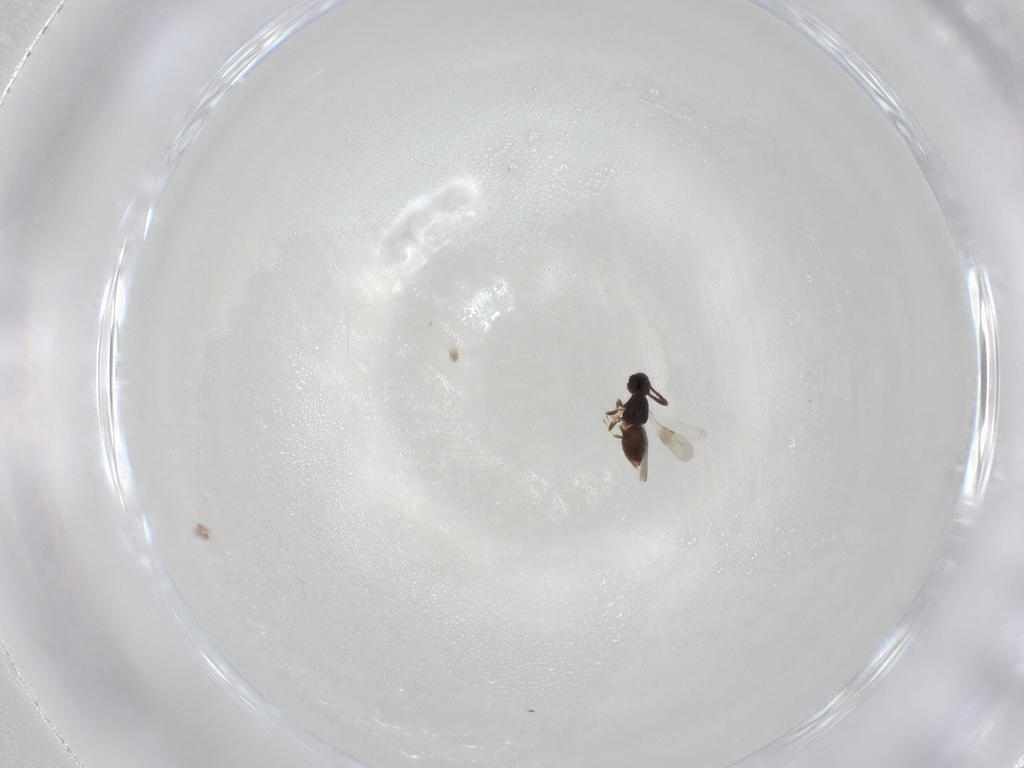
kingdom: Animalia
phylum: Arthropoda
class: Insecta
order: Hymenoptera
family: Ceraphronidae
